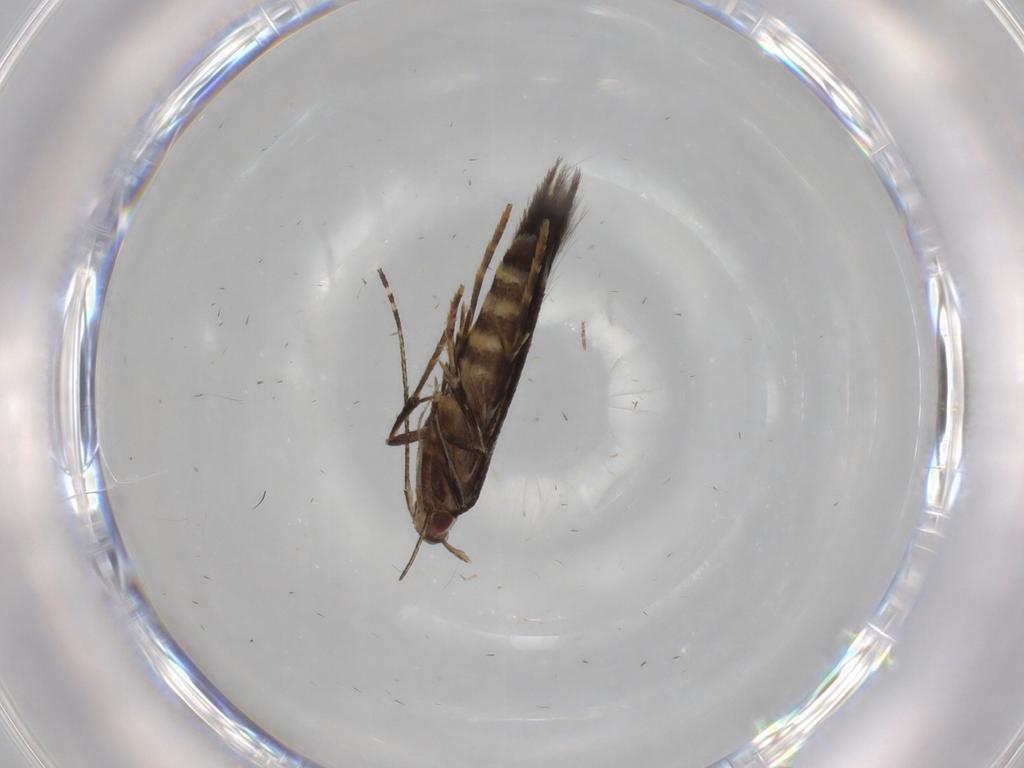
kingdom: Animalia
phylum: Arthropoda
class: Insecta
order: Lepidoptera
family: Cosmopterigidae
